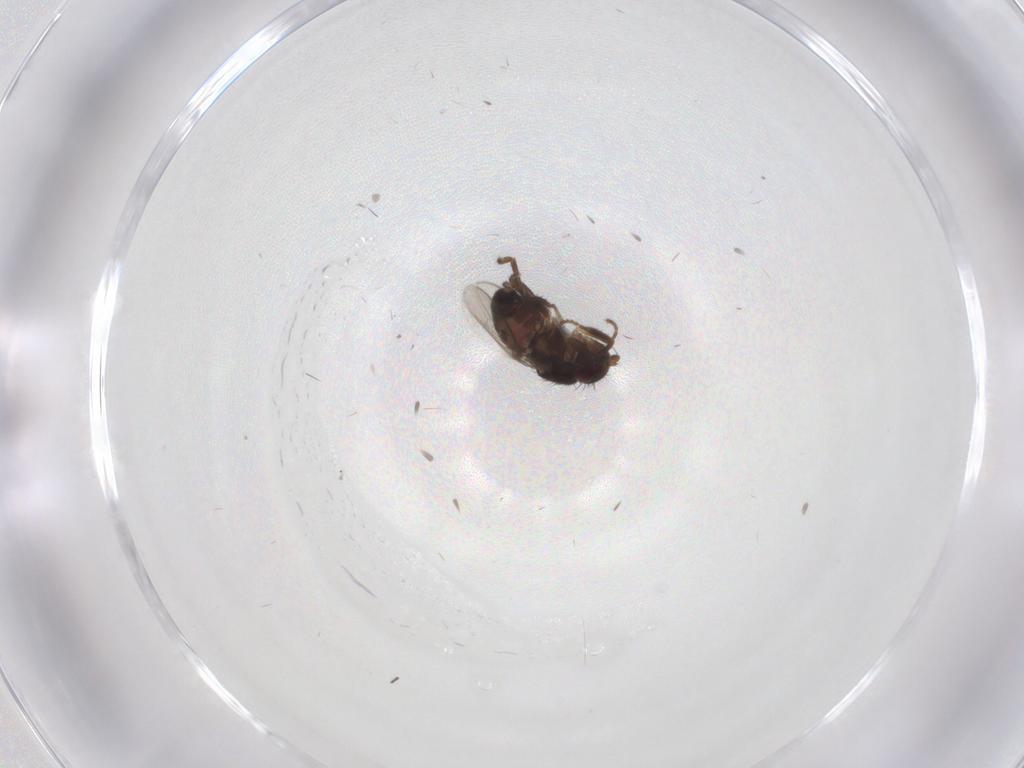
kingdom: Animalia
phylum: Arthropoda
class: Insecta
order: Diptera
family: Sphaeroceridae
